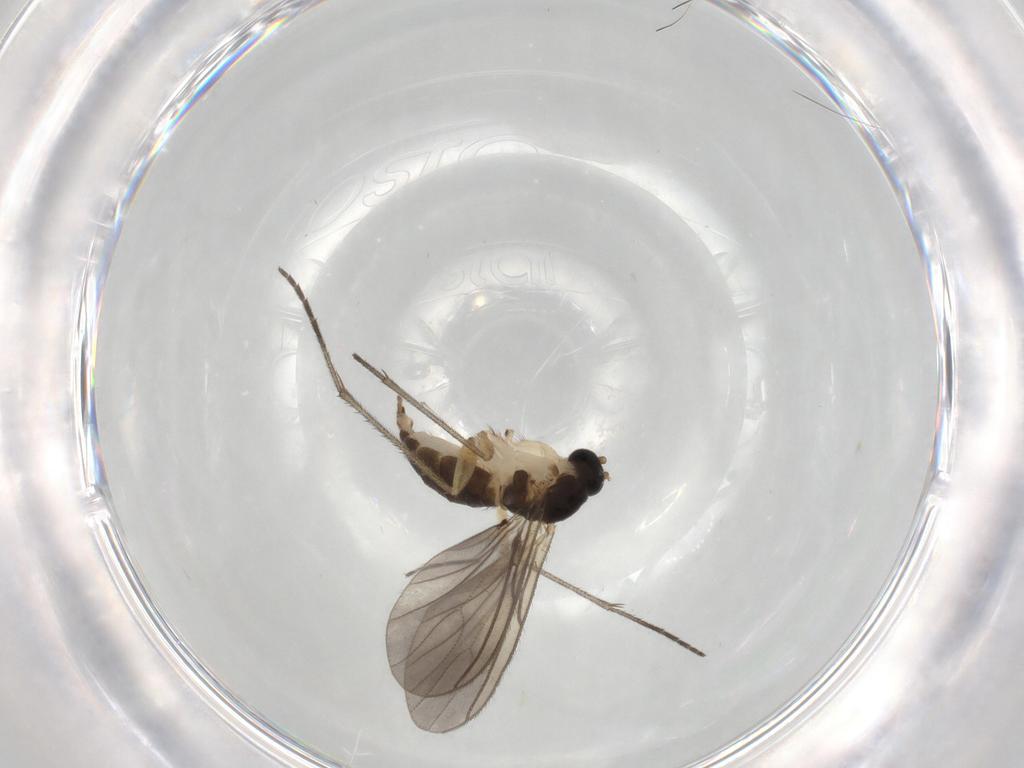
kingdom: Animalia
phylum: Arthropoda
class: Insecta
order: Diptera
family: Sciaridae
